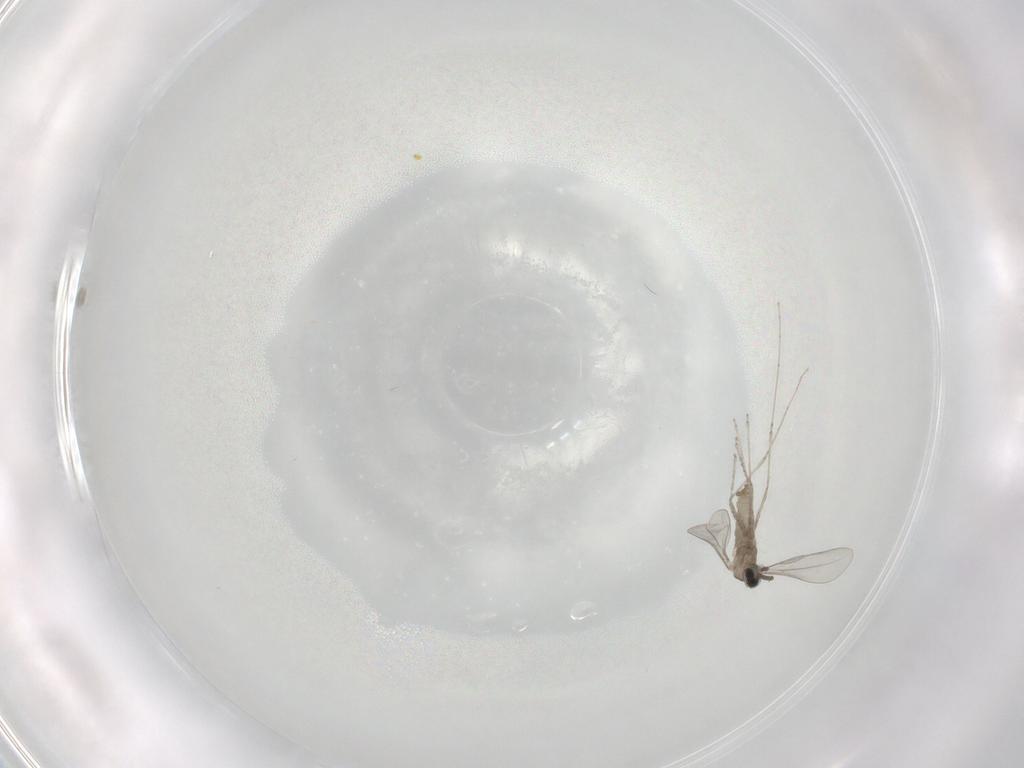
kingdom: Animalia
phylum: Arthropoda
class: Insecta
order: Diptera
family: Cecidomyiidae
